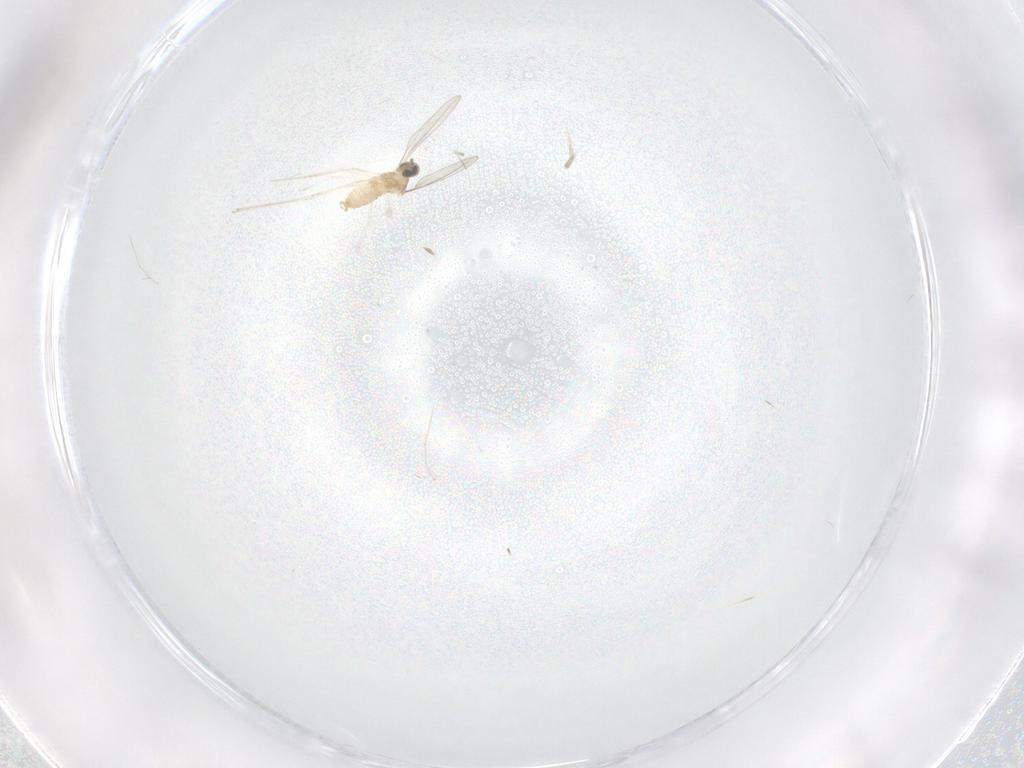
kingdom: Animalia
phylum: Arthropoda
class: Insecta
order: Diptera
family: Cecidomyiidae
